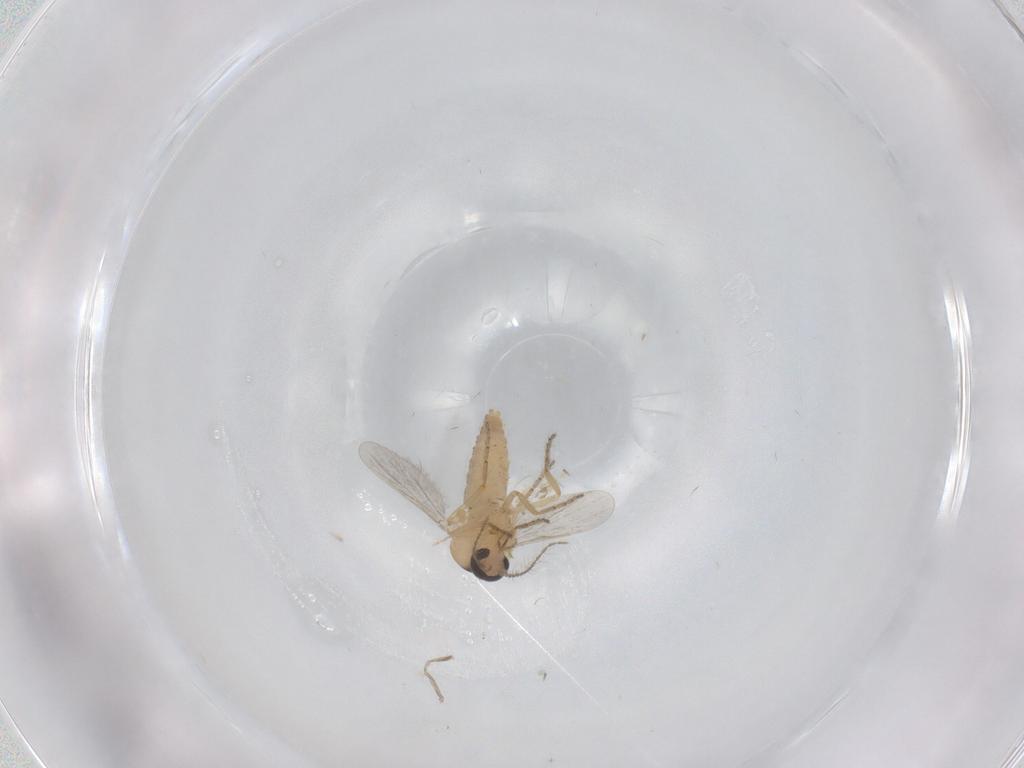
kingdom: Animalia
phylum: Arthropoda
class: Insecta
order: Diptera
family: Ceratopogonidae
